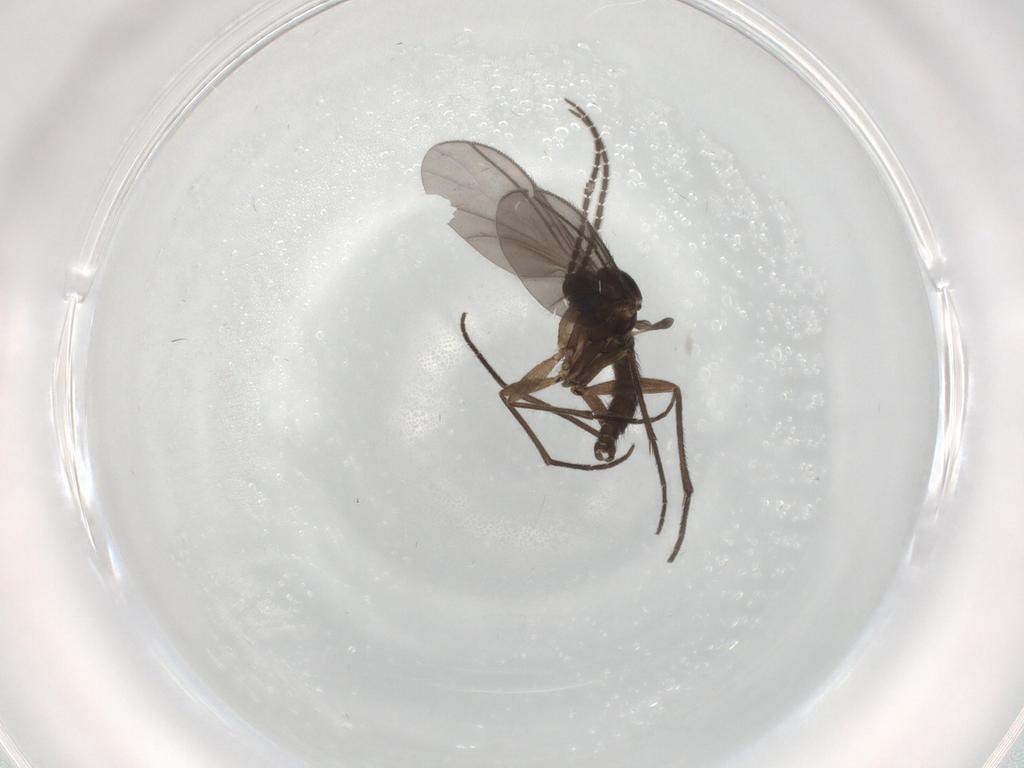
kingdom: Animalia
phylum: Arthropoda
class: Insecta
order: Diptera
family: Sciaridae
